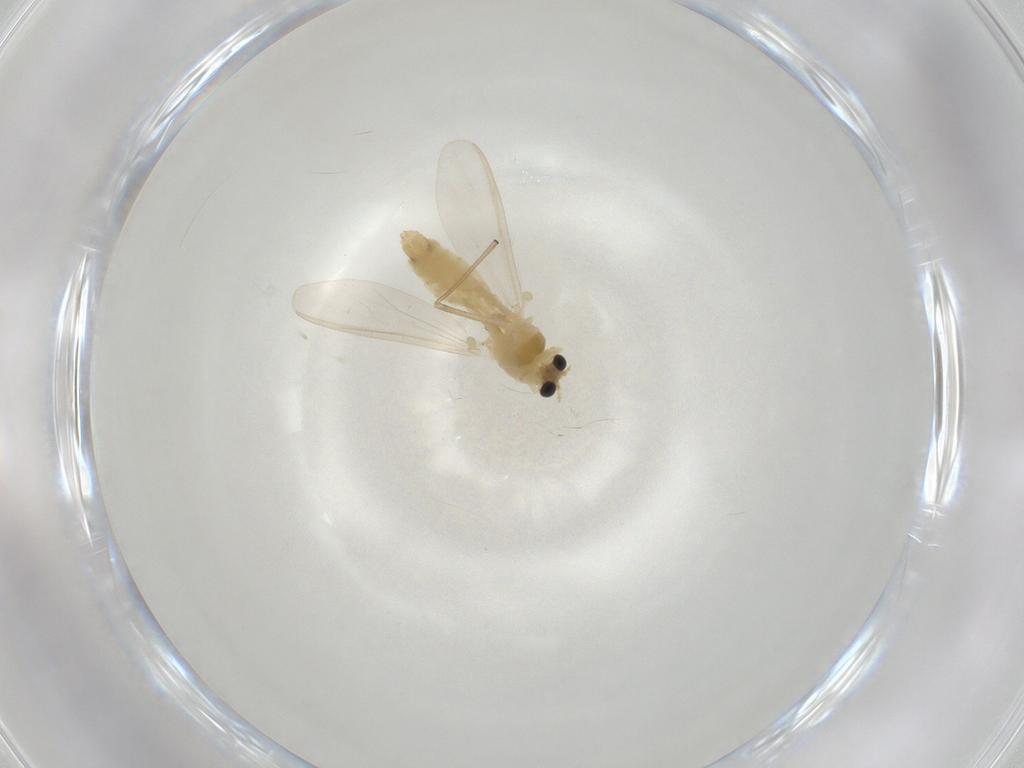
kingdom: Animalia
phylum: Arthropoda
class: Insecta
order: Diptera
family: Chironomidae
